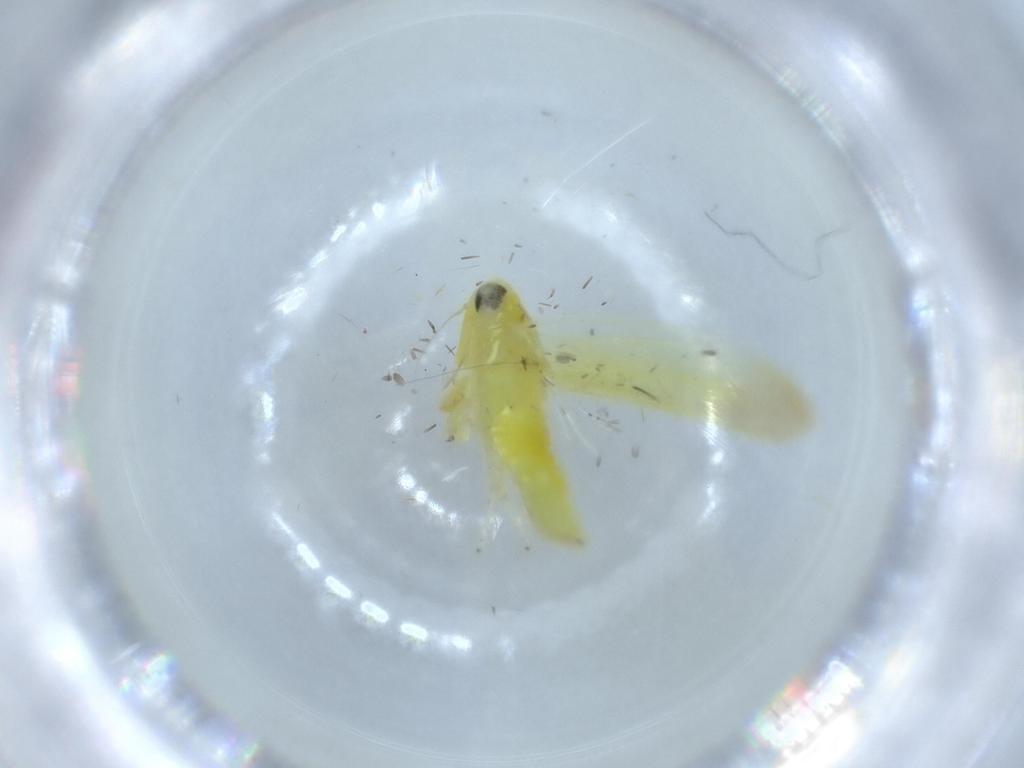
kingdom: Animalia
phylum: Arthropoda
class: Insecta
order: Hemiptera
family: Cicadellidae
